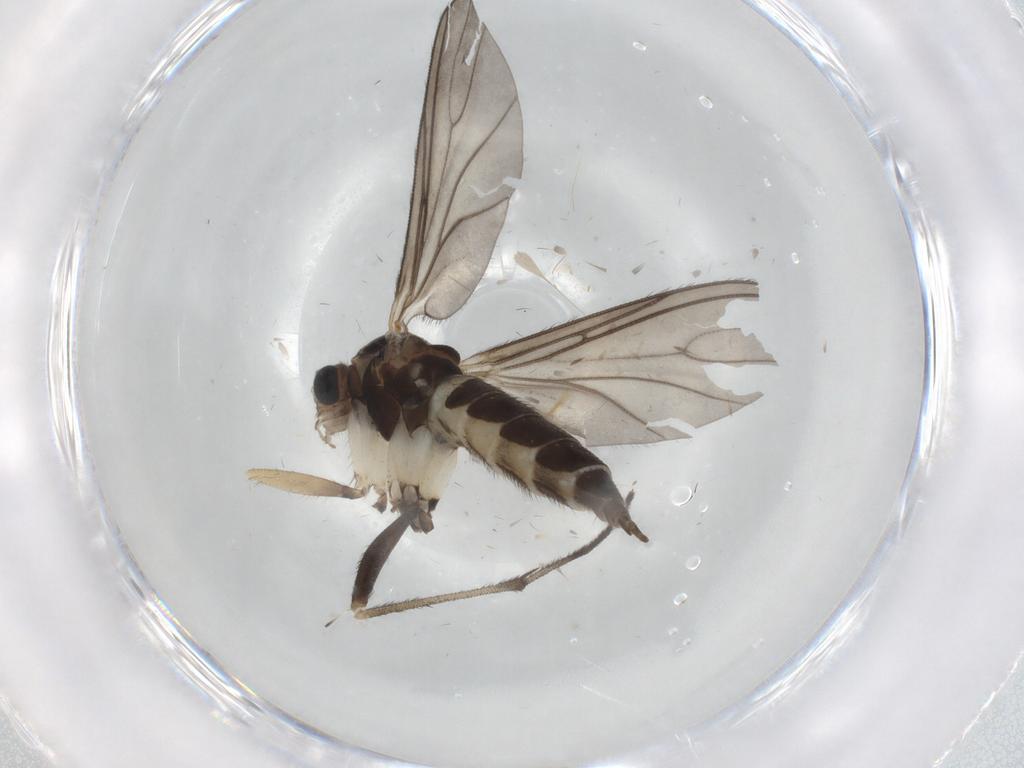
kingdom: Animalia
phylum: Arthropoda
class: Insecta
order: Diptera
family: Sciaridae
